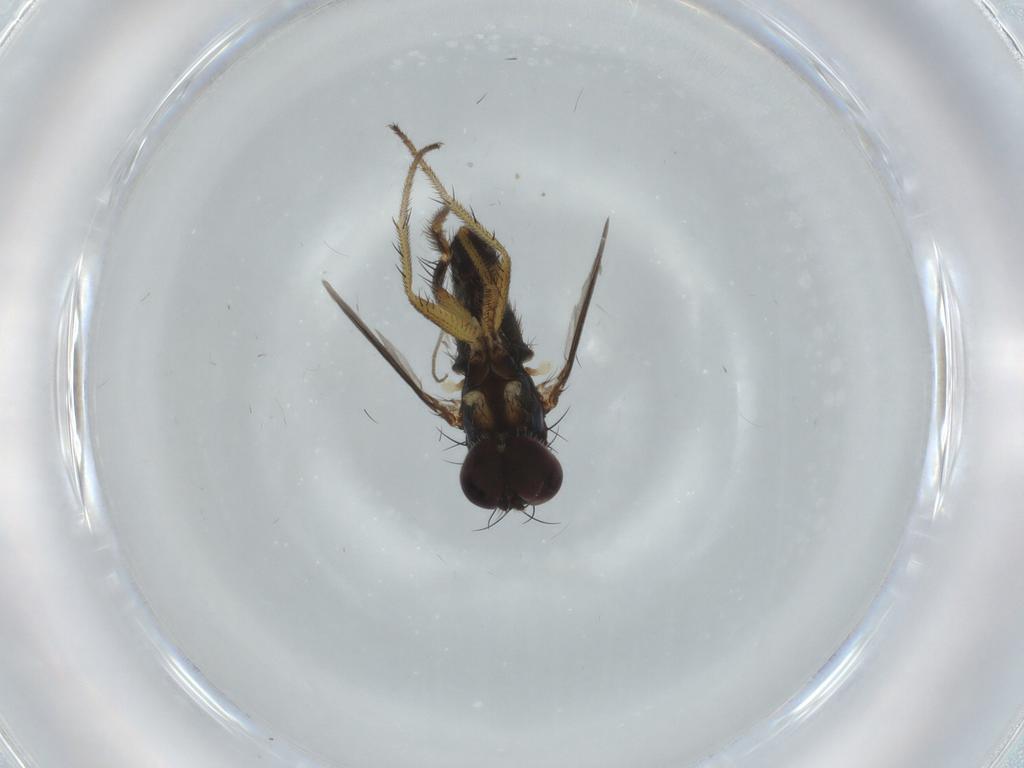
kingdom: Animalia
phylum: Arthropoda
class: Insecta
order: Diptera
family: Dolichopodidae
